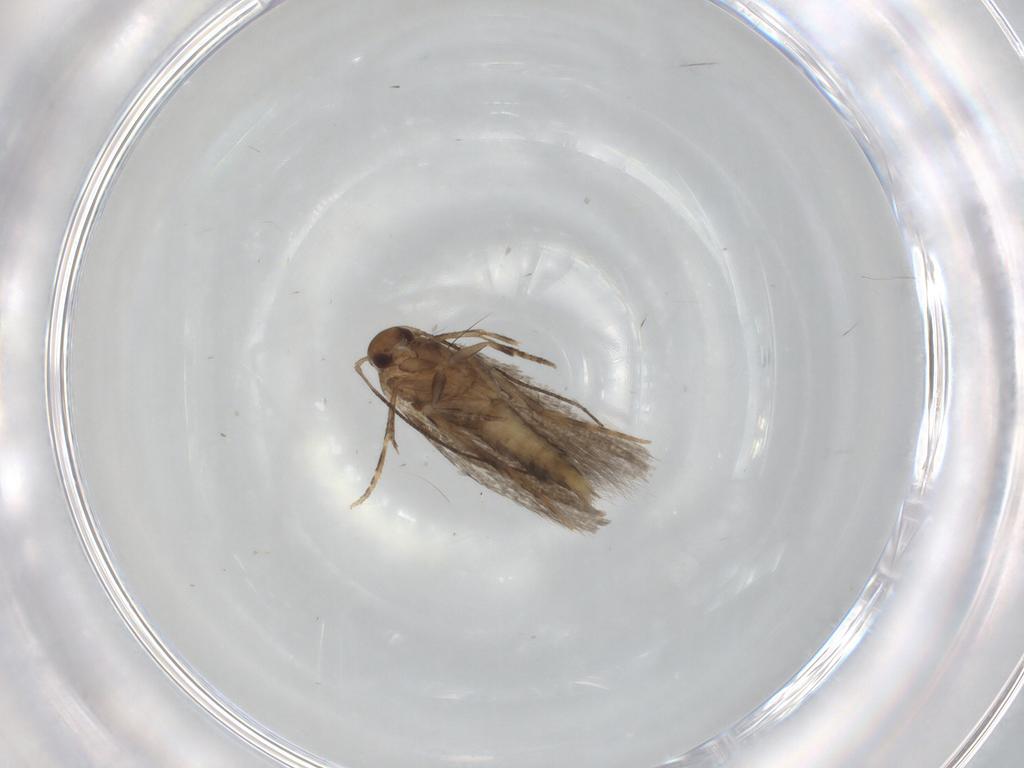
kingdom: Animalia
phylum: Arthropoda
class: Insecta
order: Lepidoptera
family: Elachistidae
